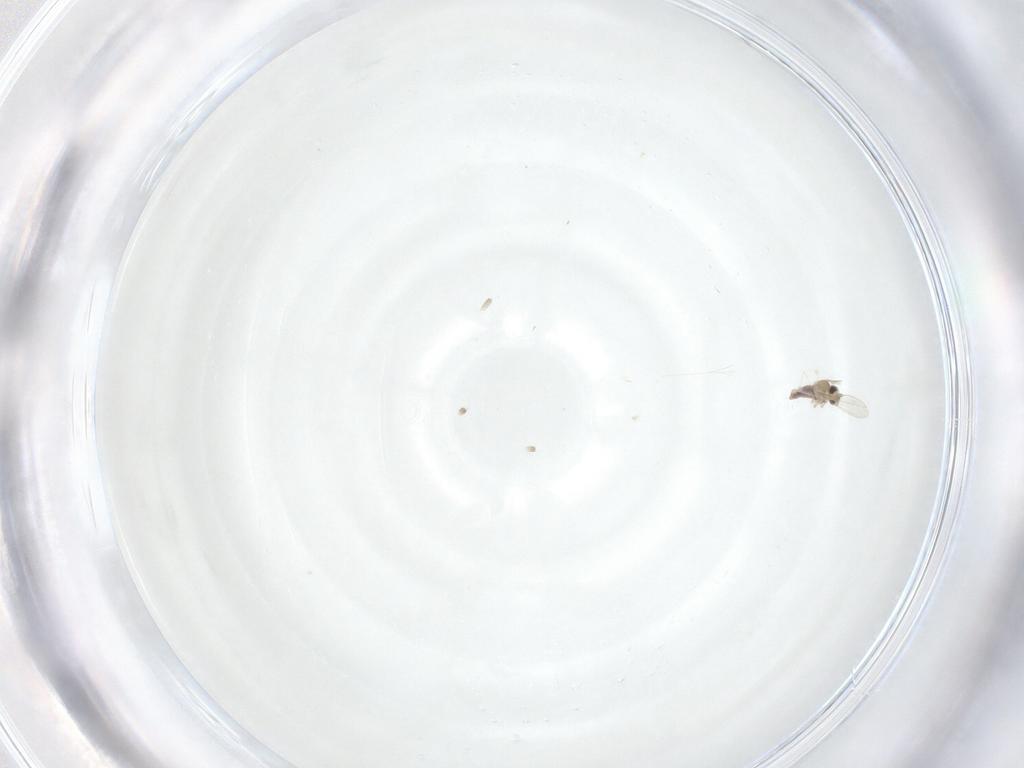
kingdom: Animalia
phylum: Arthropoda
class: Insecta
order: Diptera
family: Cecidomyiidae
